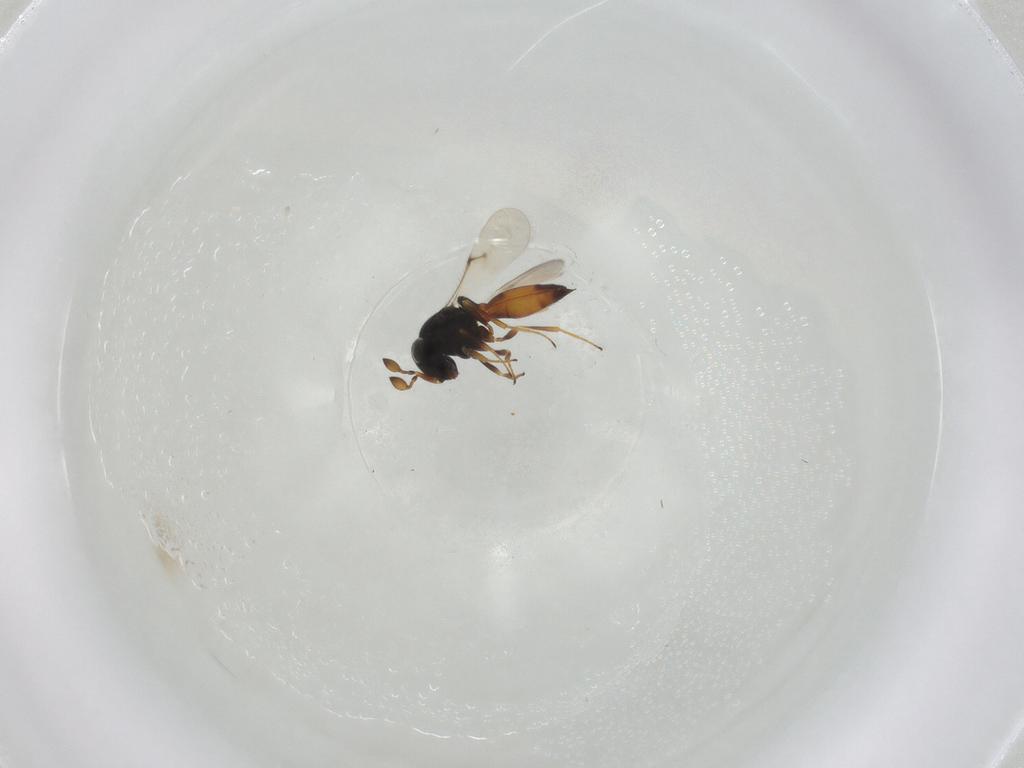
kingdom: Animalia
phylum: Arthropoda
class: Insecta
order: Hymenoptera
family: Scelionidae
